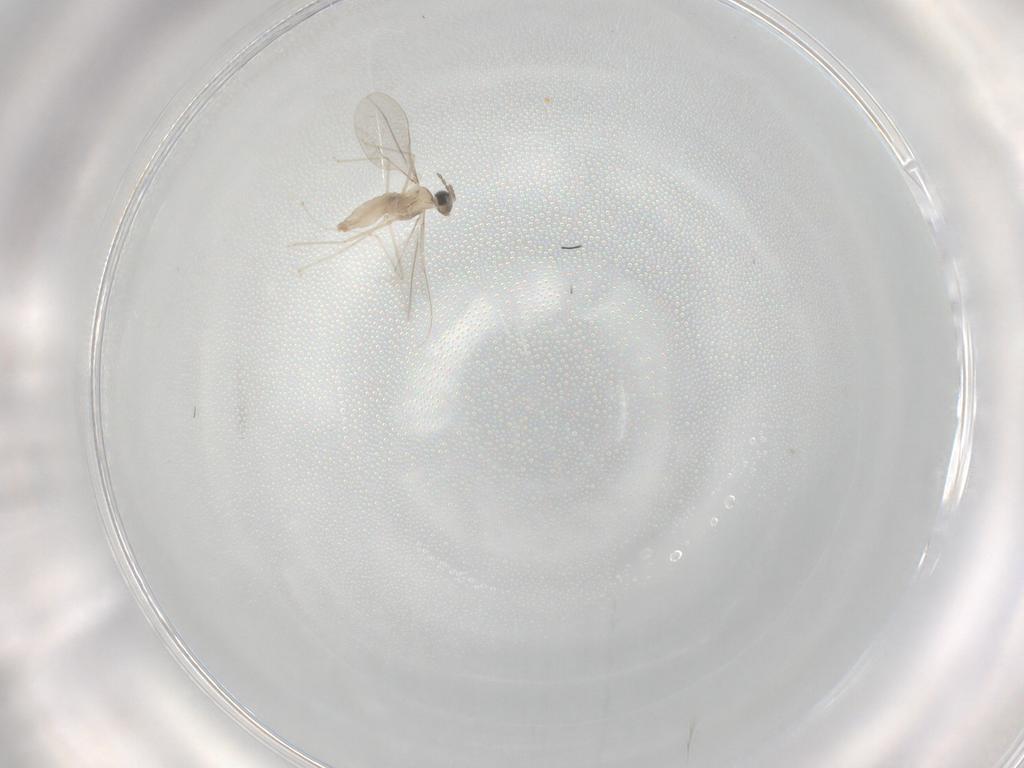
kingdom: Animalia
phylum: Arthropoda
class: Insecta
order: Diptera
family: Cecidomyiidae
